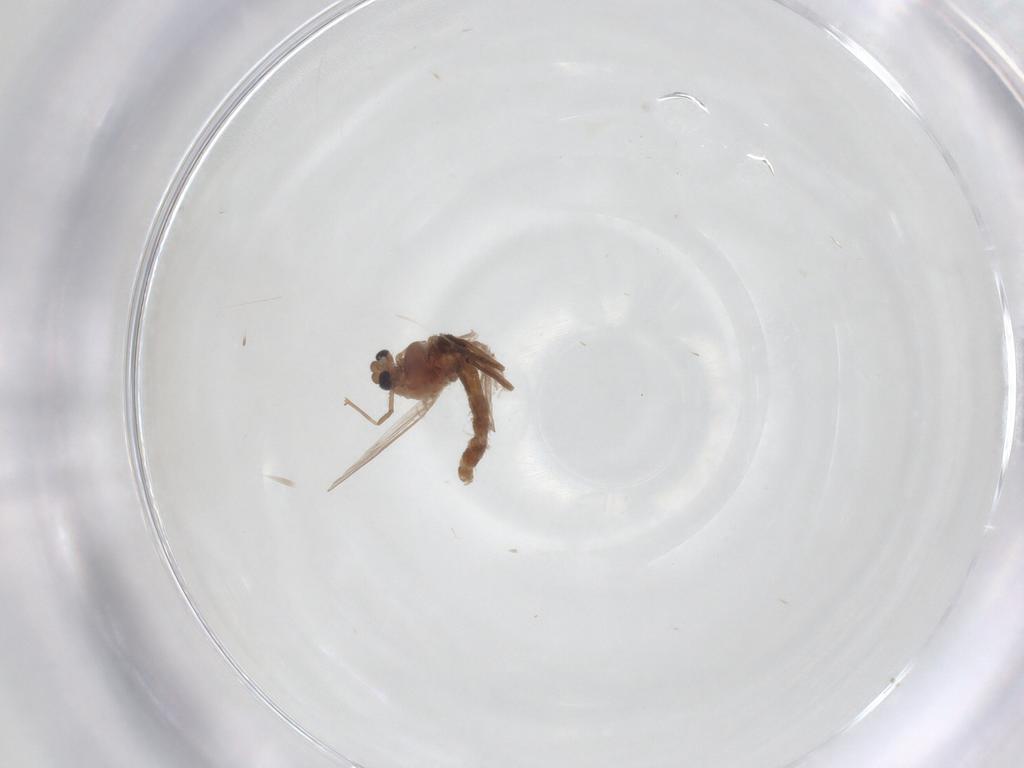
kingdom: Animalia
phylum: Arthropoda
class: Insecta
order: Diptera
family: Chironomidae
